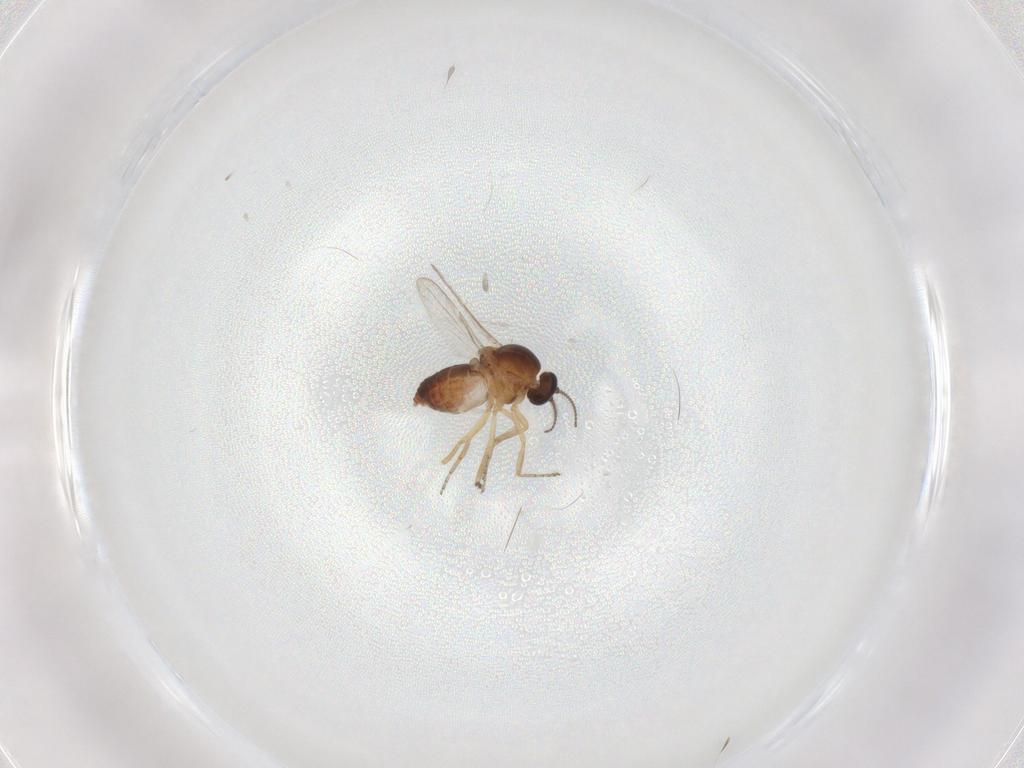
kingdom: Animalia
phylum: Arthropoda
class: Insecta
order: Diptera
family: Ceratopogonidae
